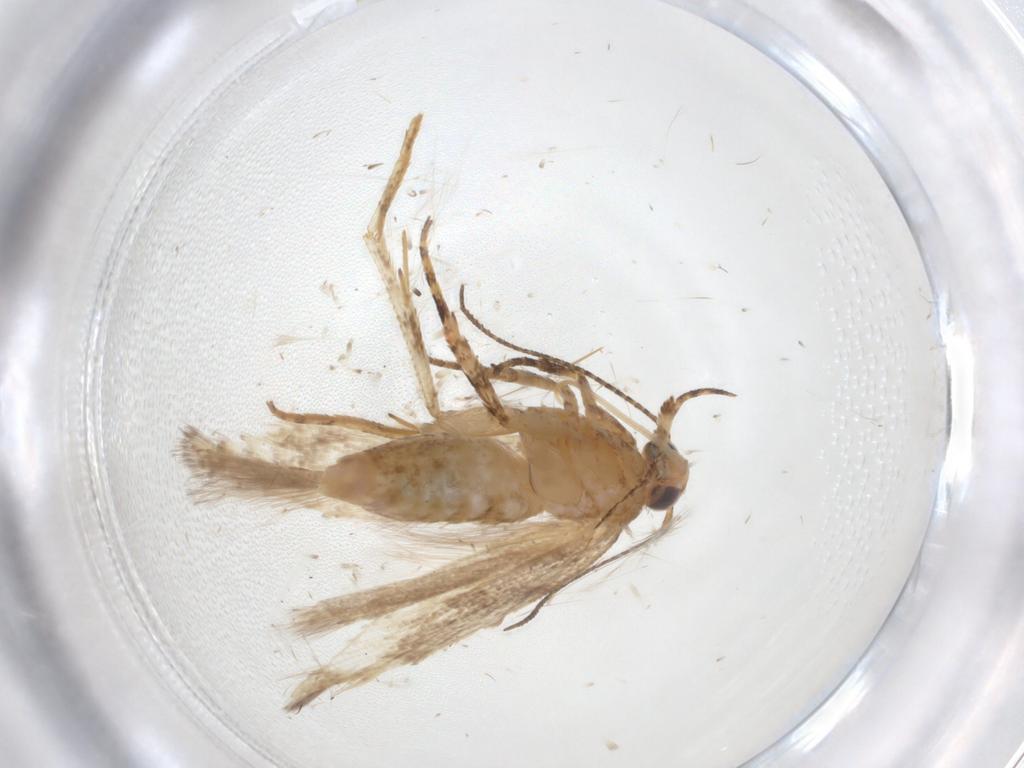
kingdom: Animalia
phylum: Arthropoda
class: Insecta
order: Lepidoptera
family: Gelechiidae
